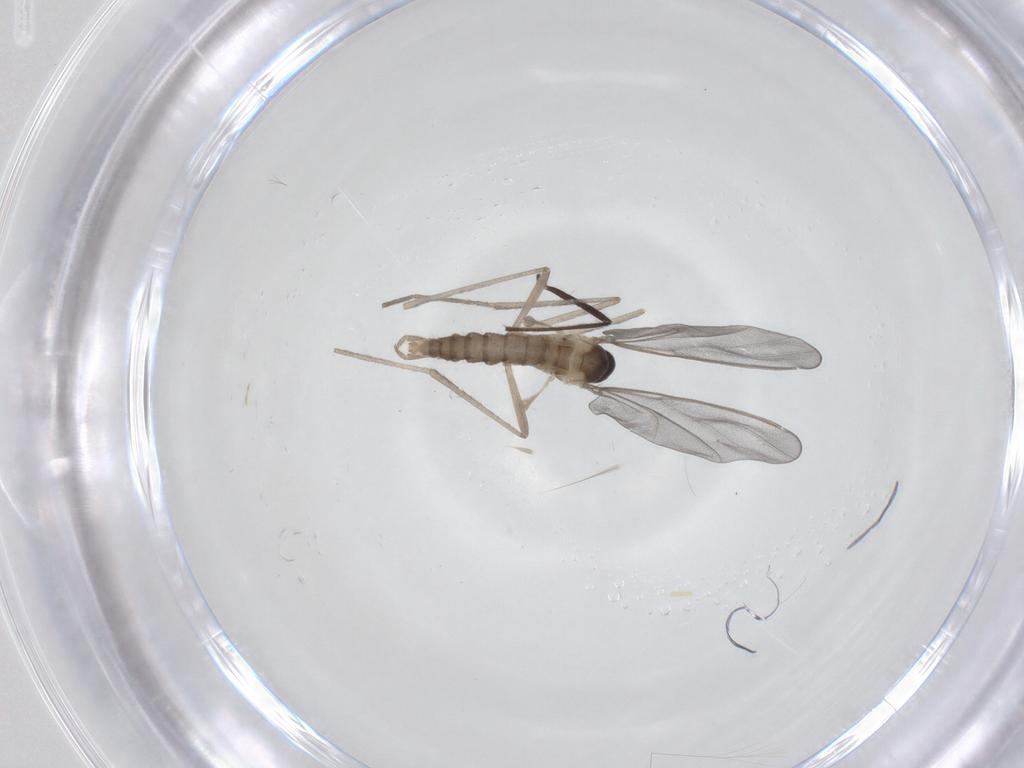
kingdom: Animalia
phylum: Arthropoda
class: Insecta
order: Diptera
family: Cecidomyiidae
